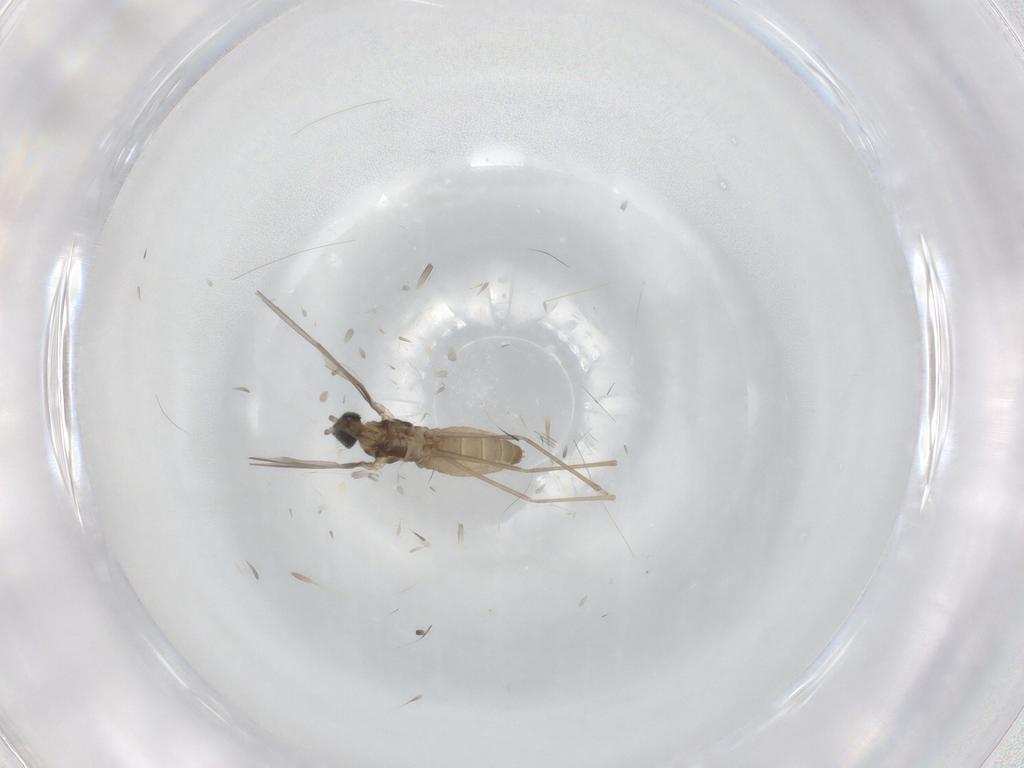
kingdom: Animalia
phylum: Arthropoda
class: Insecta
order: Diptera
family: Cecidomyiidae
